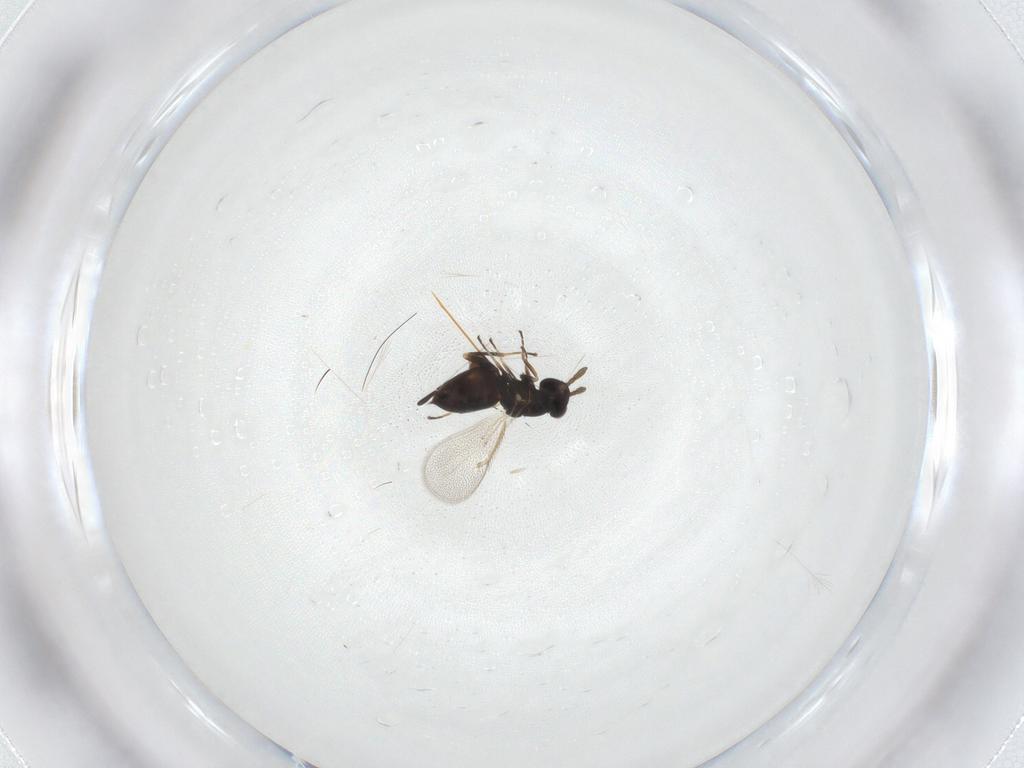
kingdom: Animalia
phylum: Arthropoda
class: Insecta
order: Hymenoptera
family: Eulophidae
